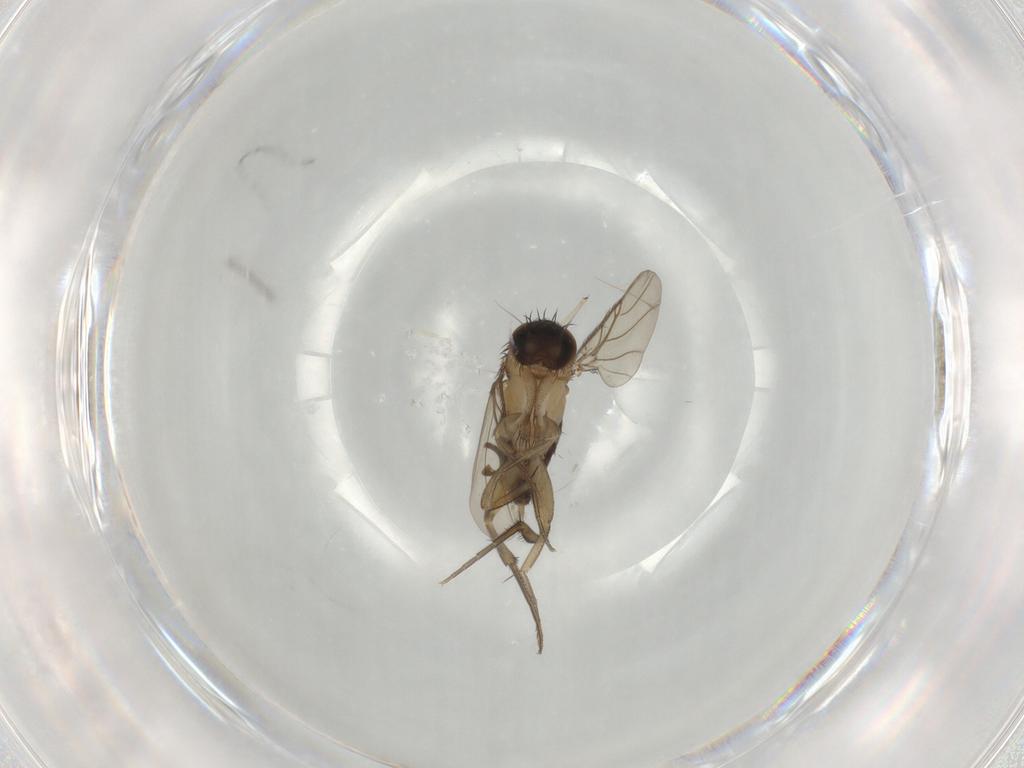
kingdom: Animalia
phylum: Arthropoda
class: Insecta
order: Diptera
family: Phoridae
